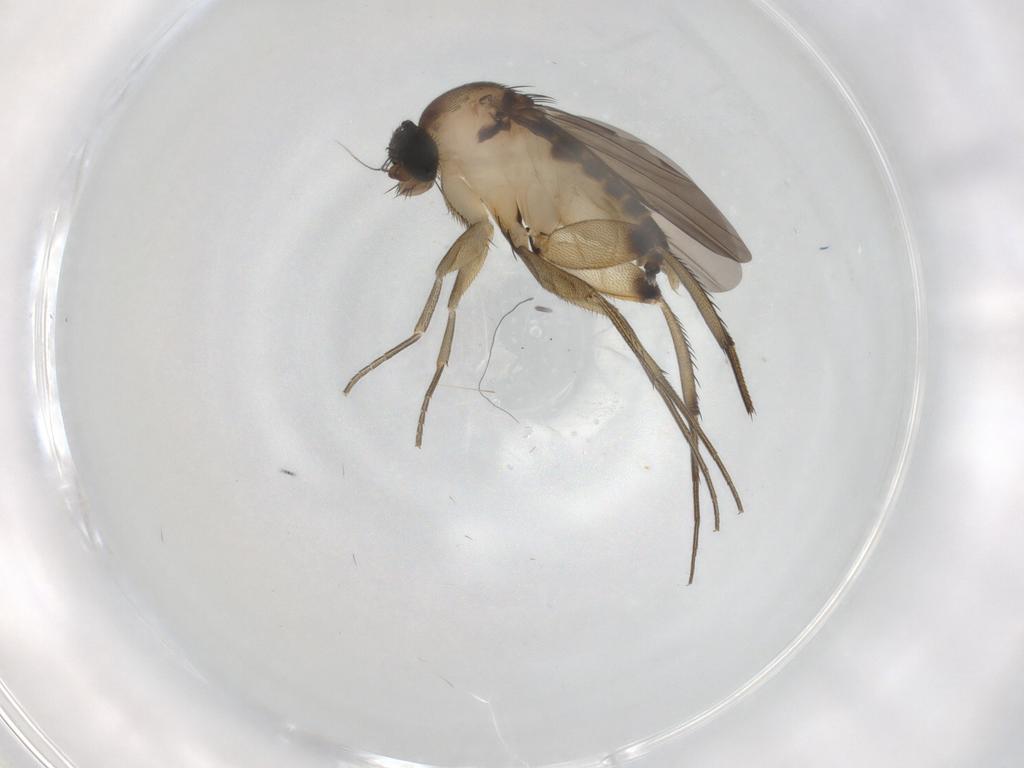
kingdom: Animalia
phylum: Arthropoda
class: Insecta
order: Diptera
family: Phoridae
